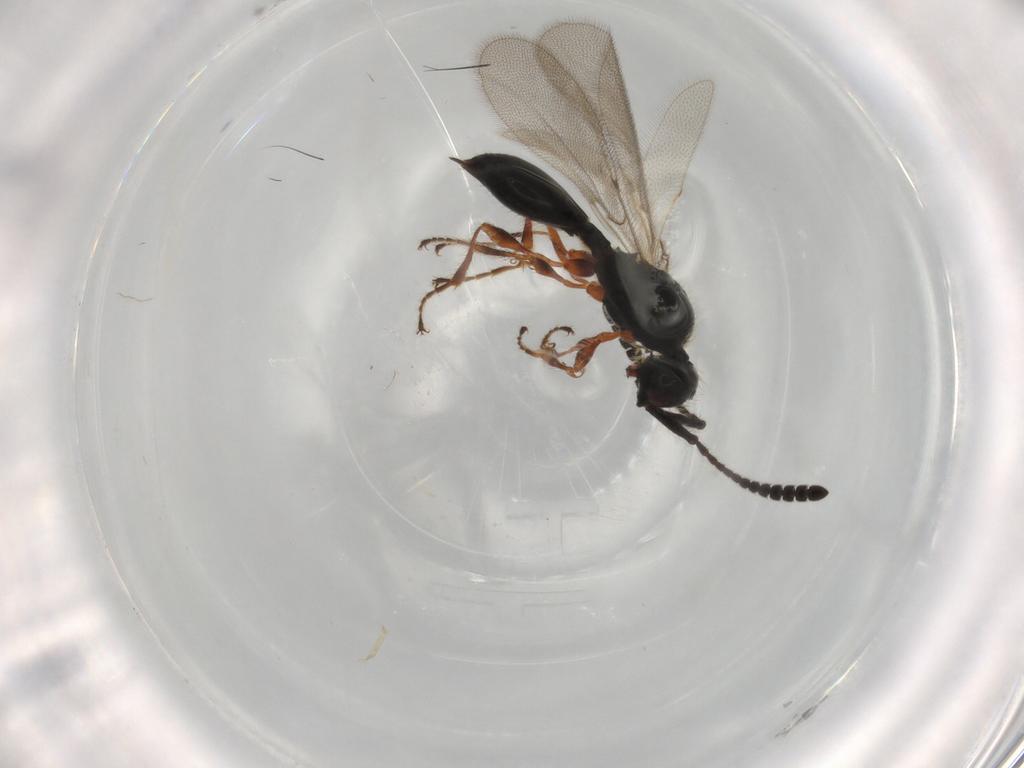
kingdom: Animalia
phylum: Arthropoda
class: Insecta
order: Hymenoptera
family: Diapriidae
